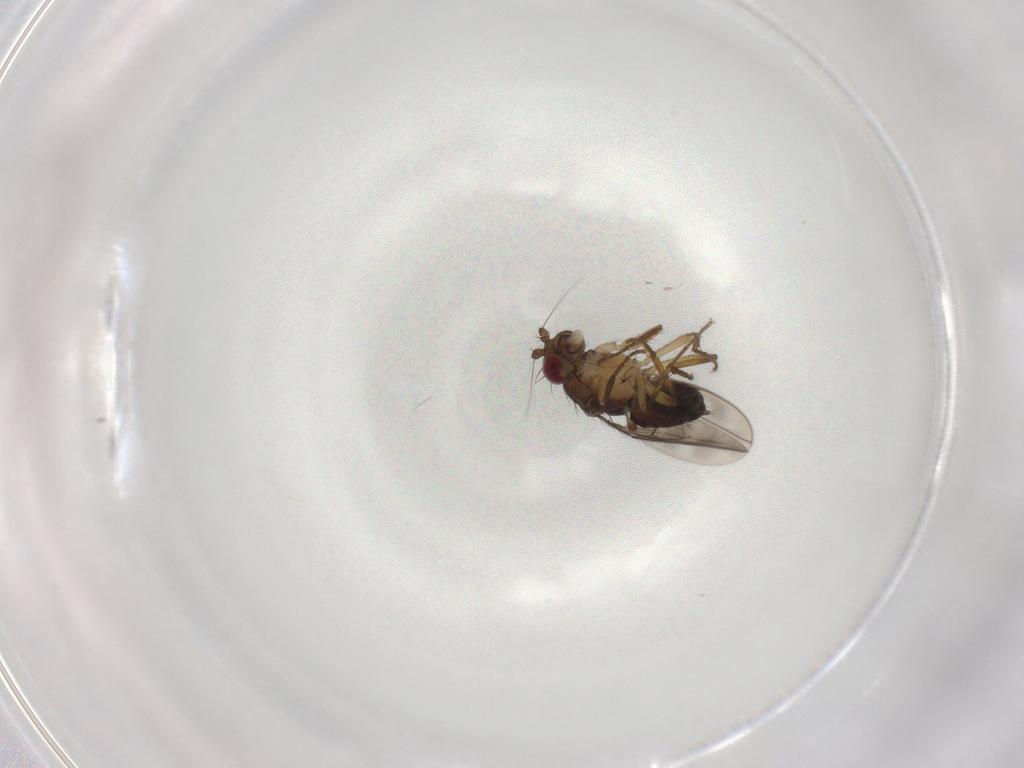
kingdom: Animalia
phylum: Arthropoda
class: Insecta
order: Diptera
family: Sphaeroceridae
